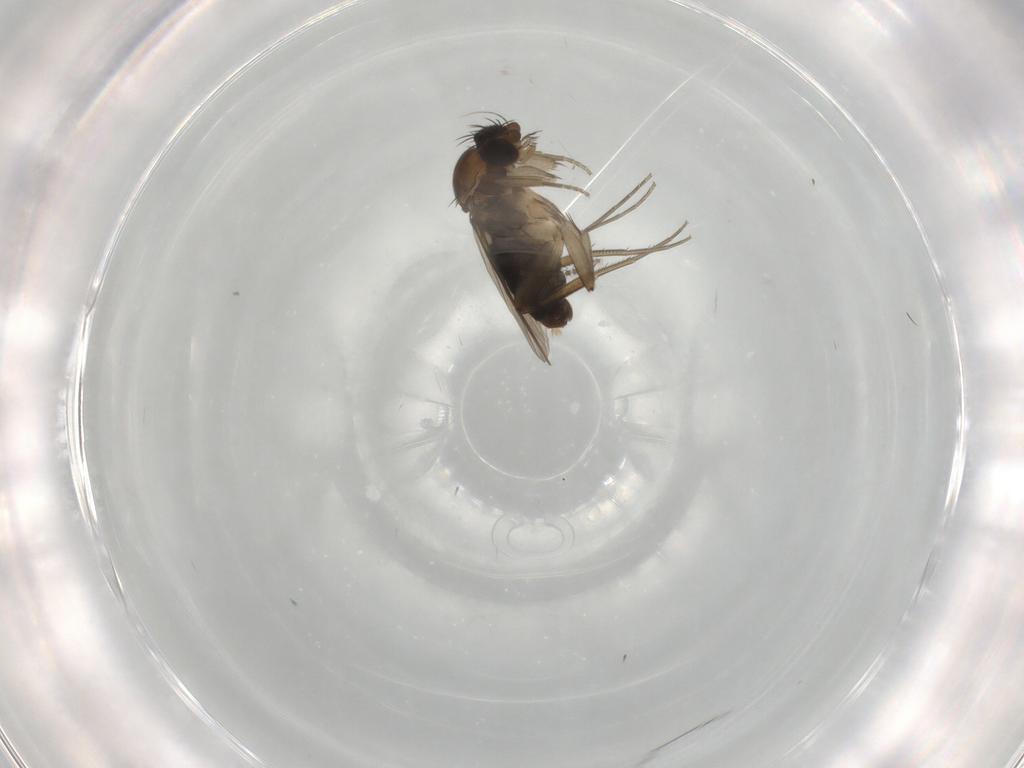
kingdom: Animalia
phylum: Arthropoda
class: Insecta
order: Diptera
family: Phoridae
